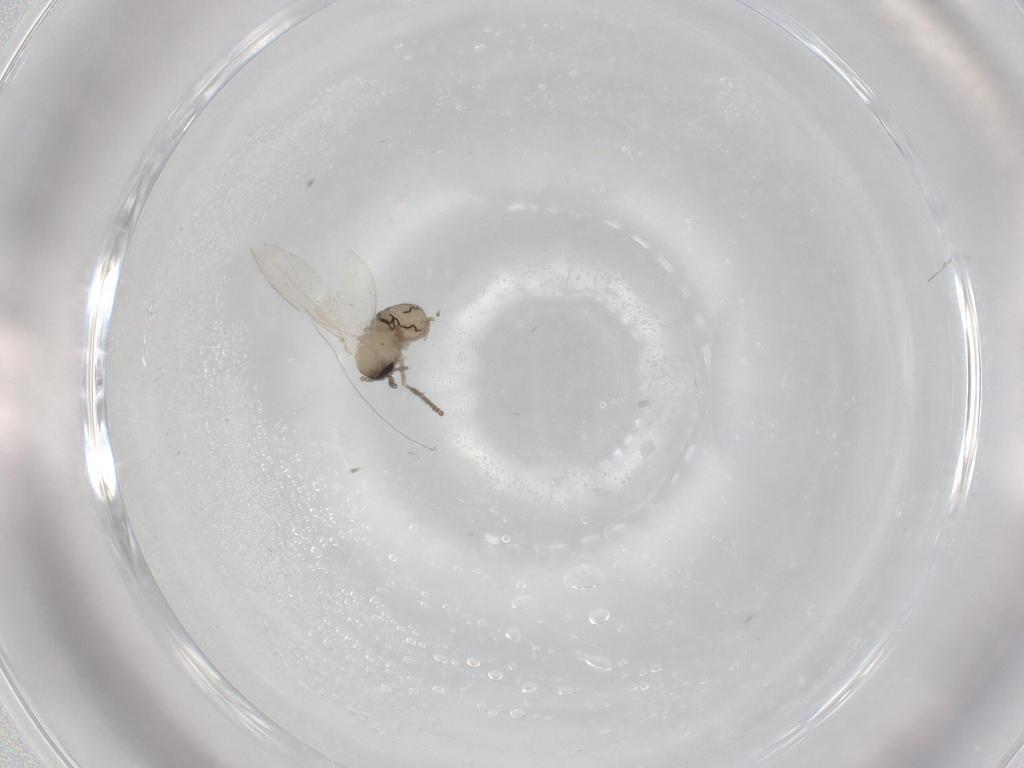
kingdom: Animalia
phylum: Arthropoda
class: Insecta
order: Diptera
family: Psychodidae
